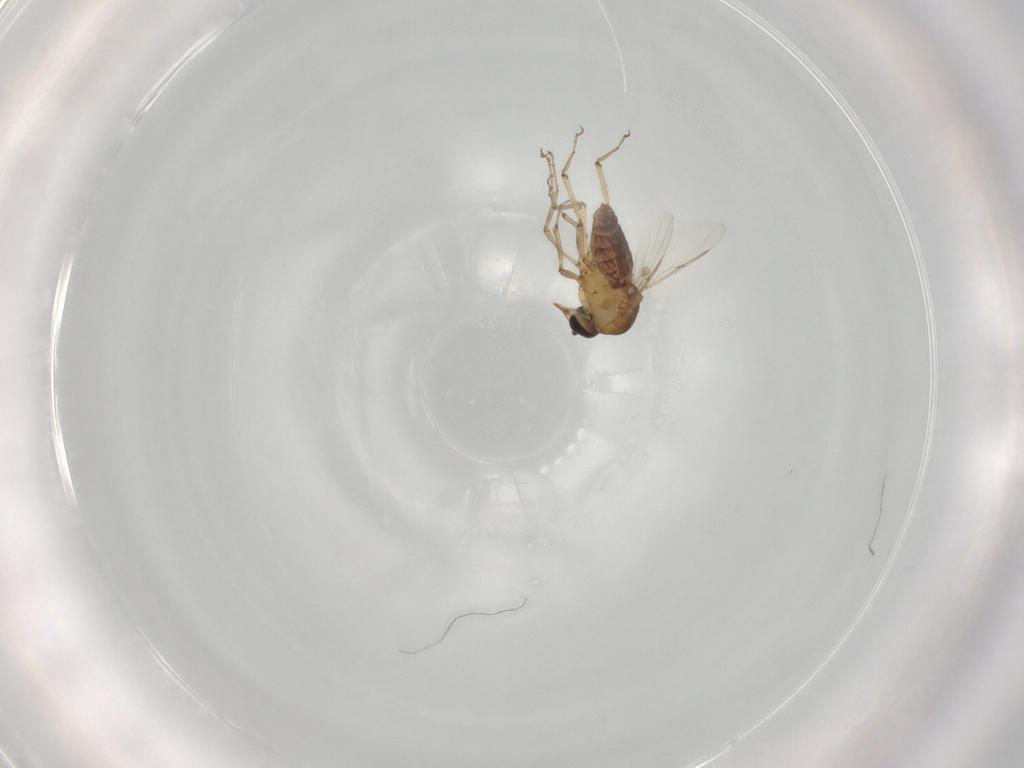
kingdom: Animalia
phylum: Arthropoda
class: Insecta
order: Diptera
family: Ceratopogonidae
